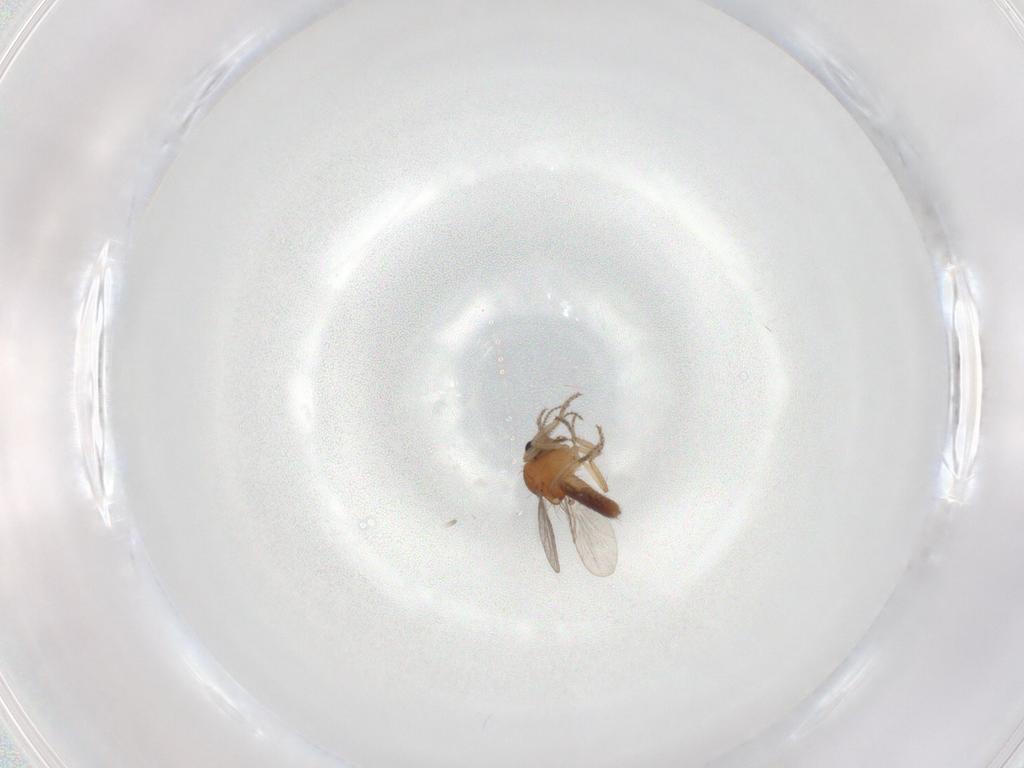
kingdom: Animalia
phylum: Arthropoda
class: Insecta
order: Diptera
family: Ceratopogonidae
